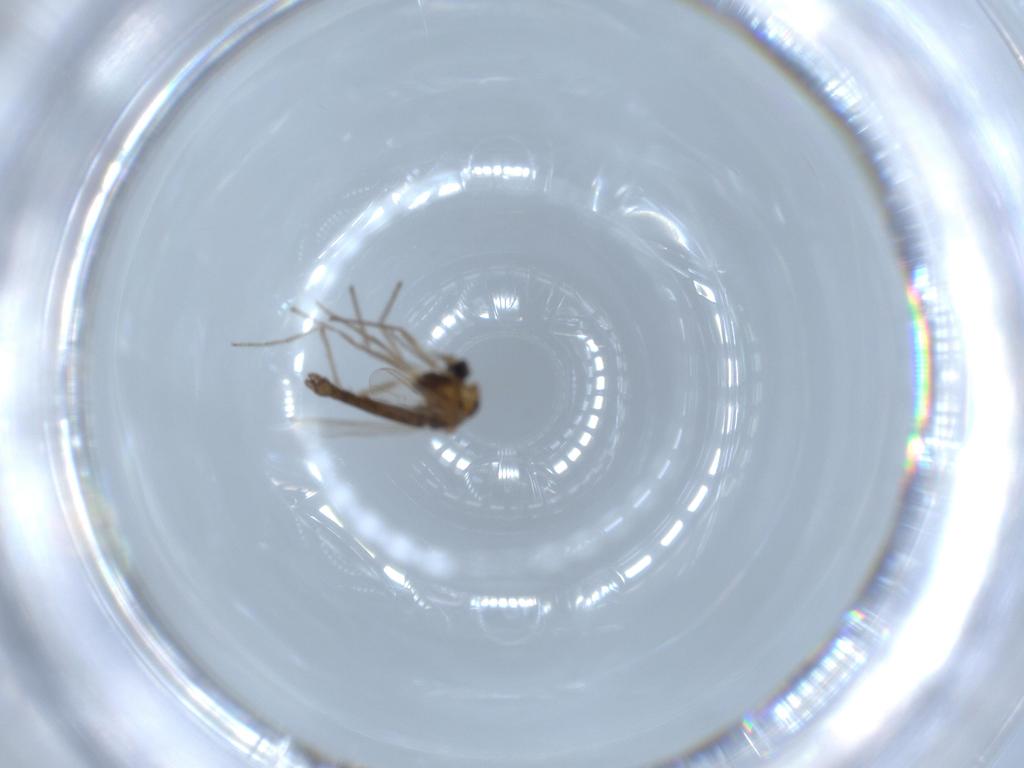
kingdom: Animalia
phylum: Arthropoda
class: Insecta
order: Diptera
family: Chironomidae
